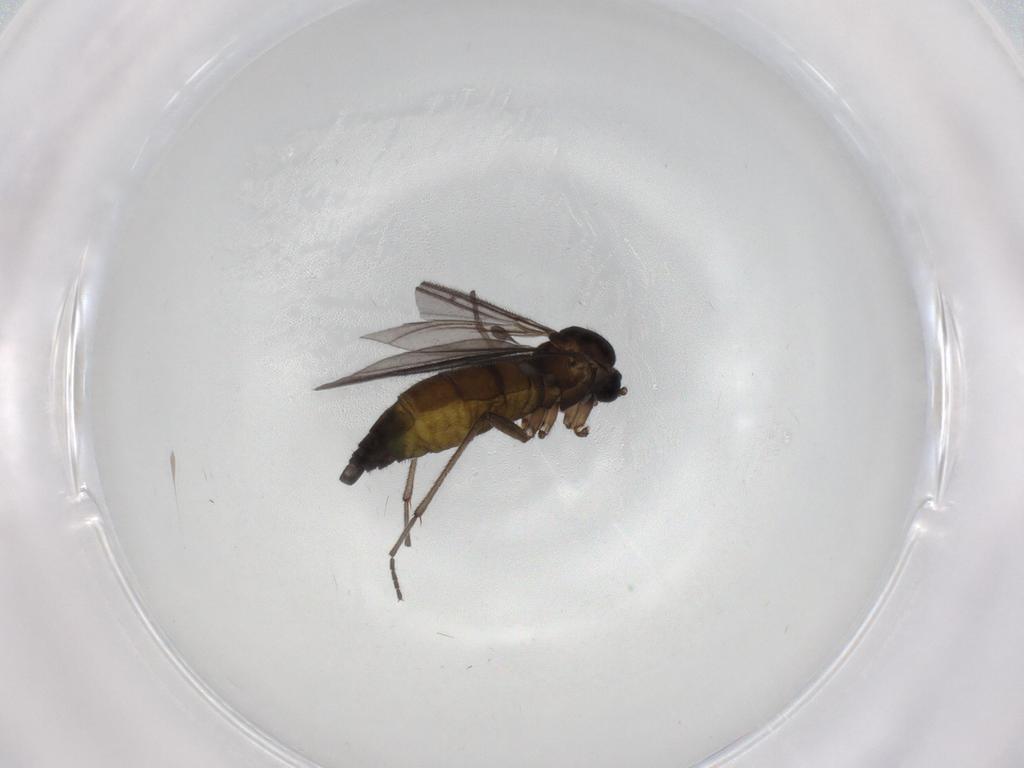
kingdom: Animalia
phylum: Arthropoda
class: Insecta
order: Diptera
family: Sciaridae
